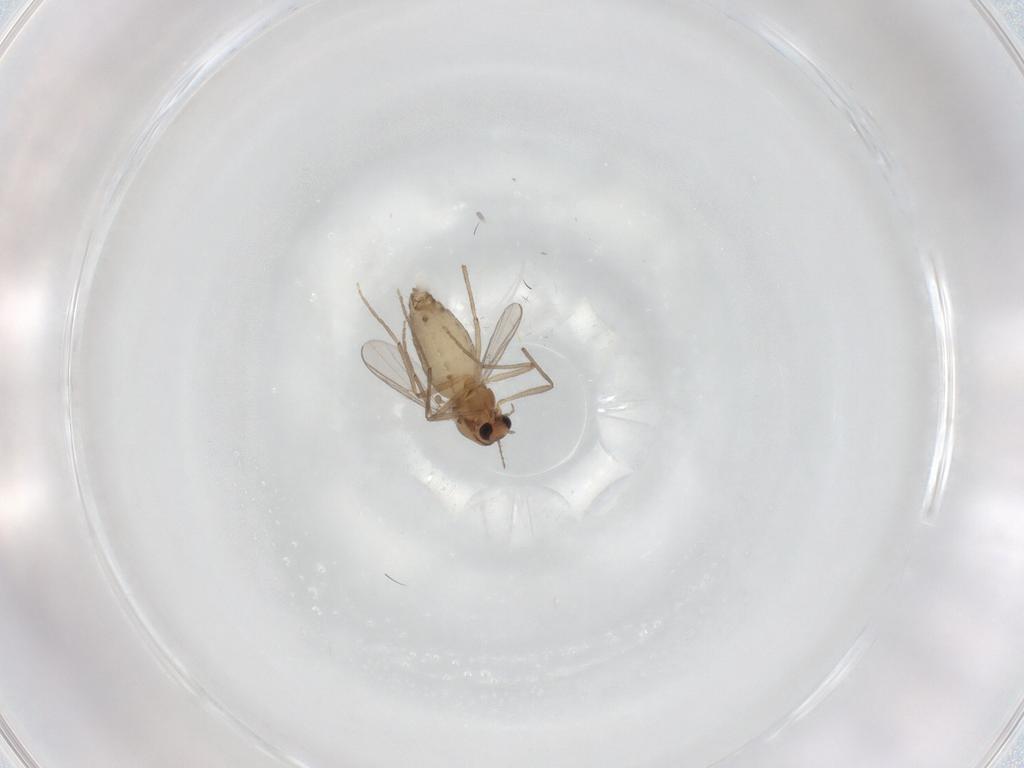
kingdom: Animalia
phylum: Arthropoda
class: Insecta
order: Diptera
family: Chironomidae
